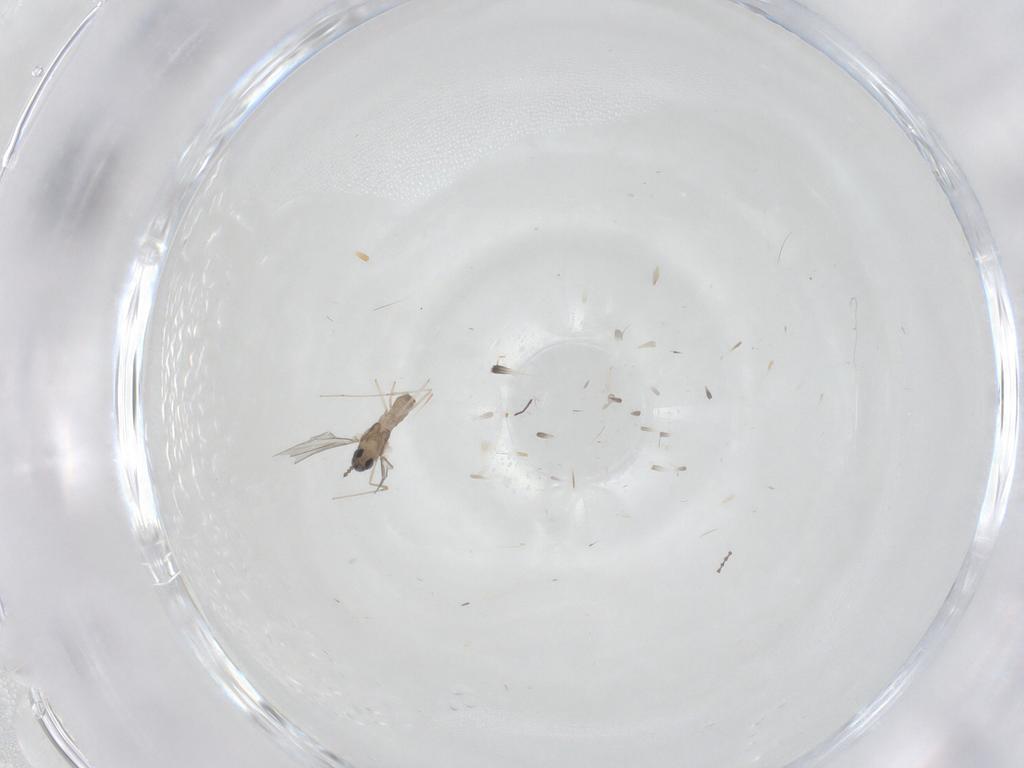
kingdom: Animalia
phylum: Arthropoda
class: Insecta
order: Diptera
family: Cecidomyiidae
